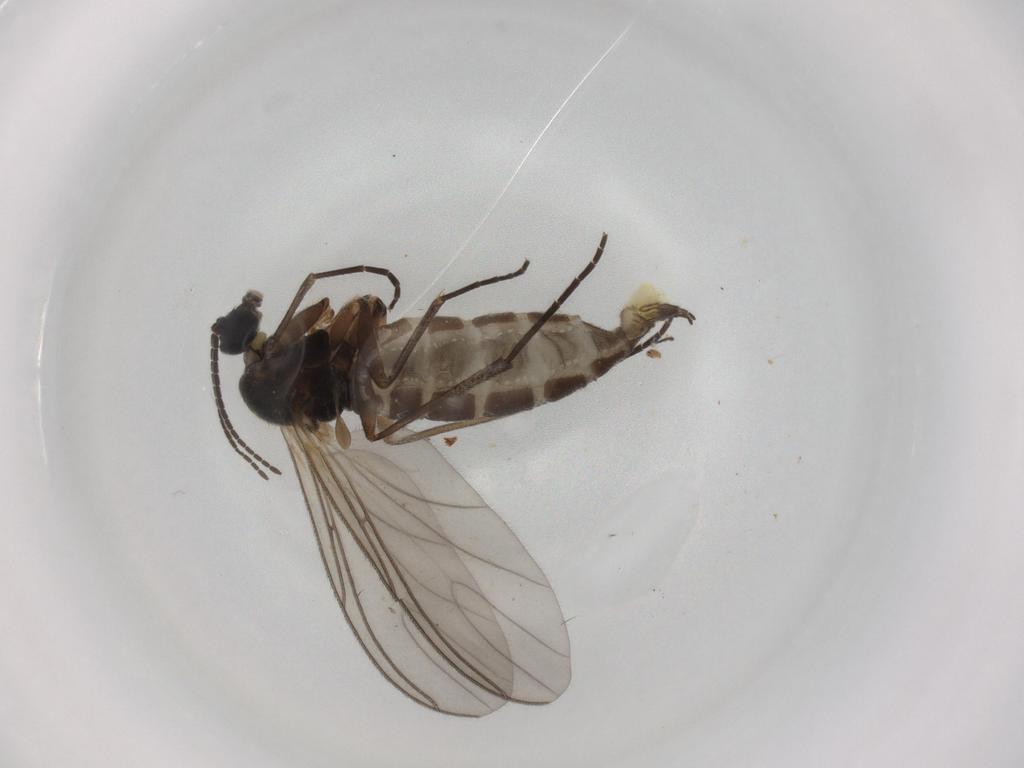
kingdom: Animalia
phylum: Arthropoda
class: Insecta
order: Diptera
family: Sciaridae
